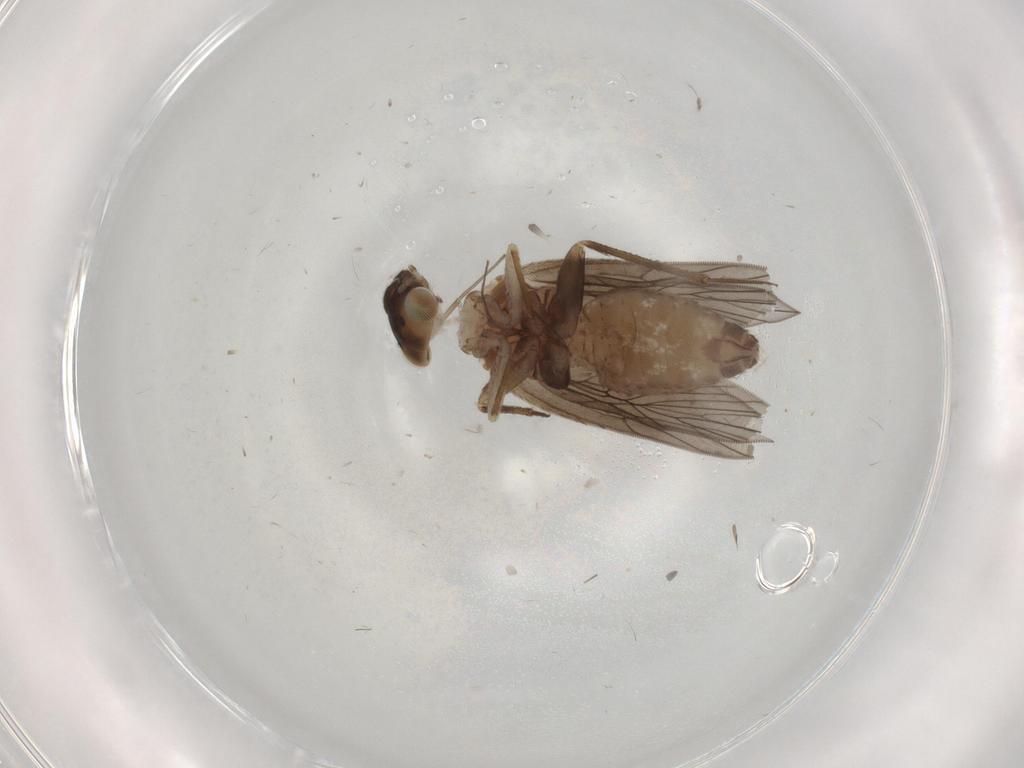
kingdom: Animalia
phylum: Arthropoda
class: Insecta
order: Psocodea
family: Lepidopsocidae
